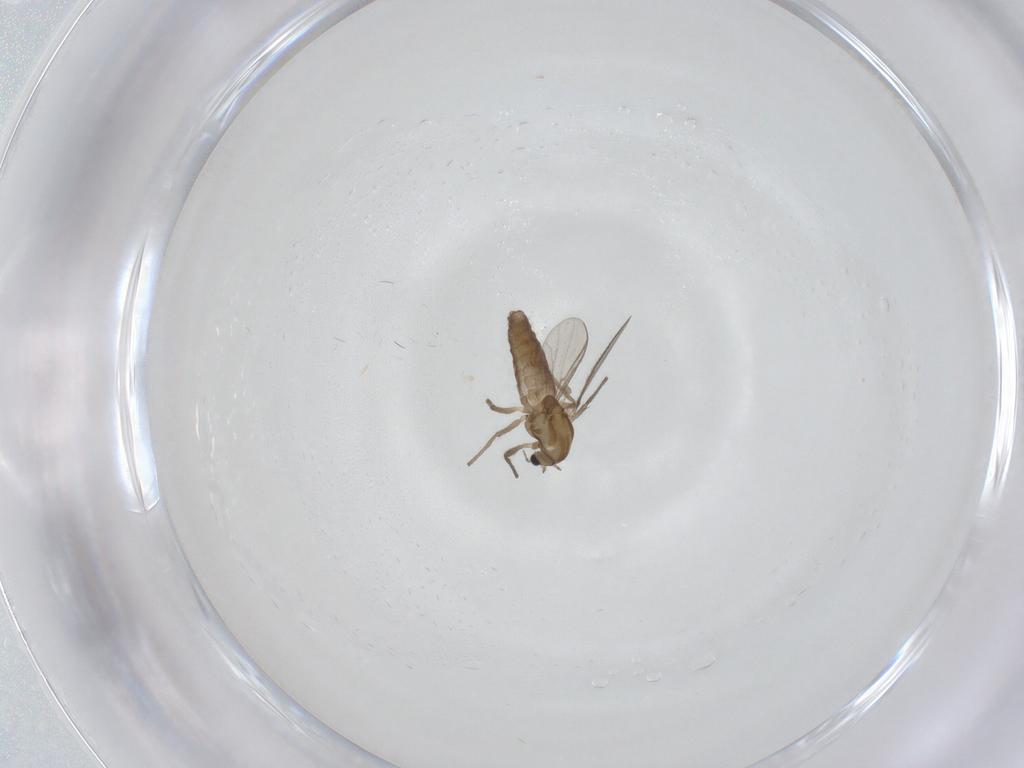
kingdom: Animalia
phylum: Arthropoda
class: Insecta
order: Diptera
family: Chironomidae
